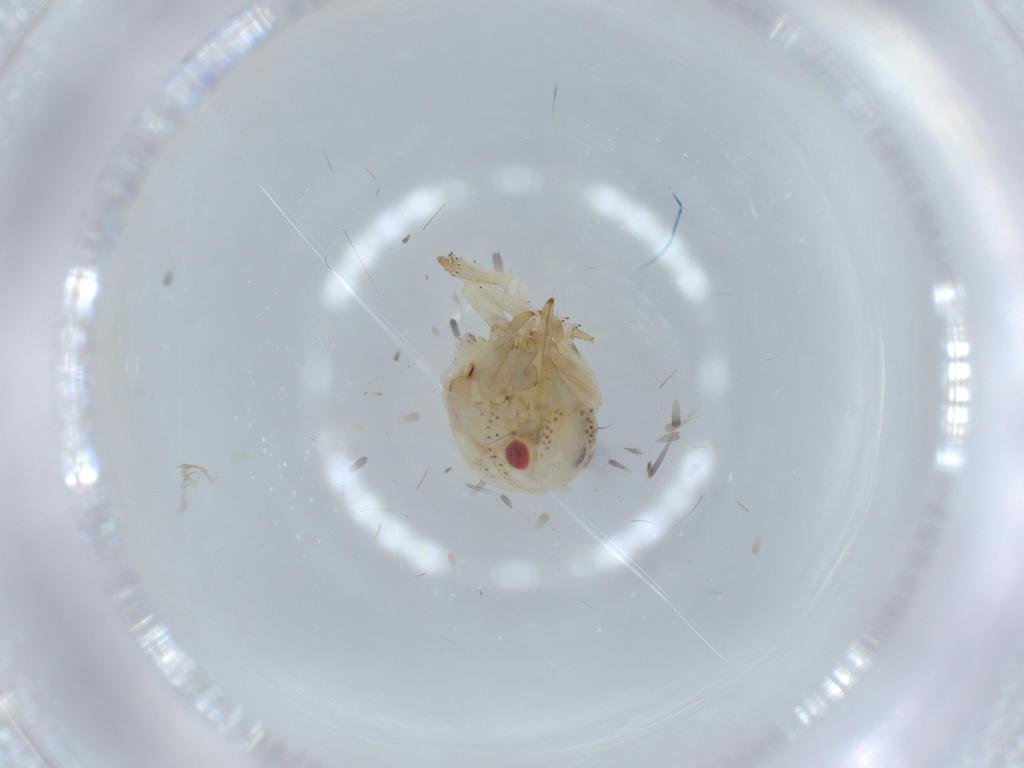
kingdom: Animalia
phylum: Arthropoda
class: Insecta
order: Hemiptera
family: Acanaloniidae
